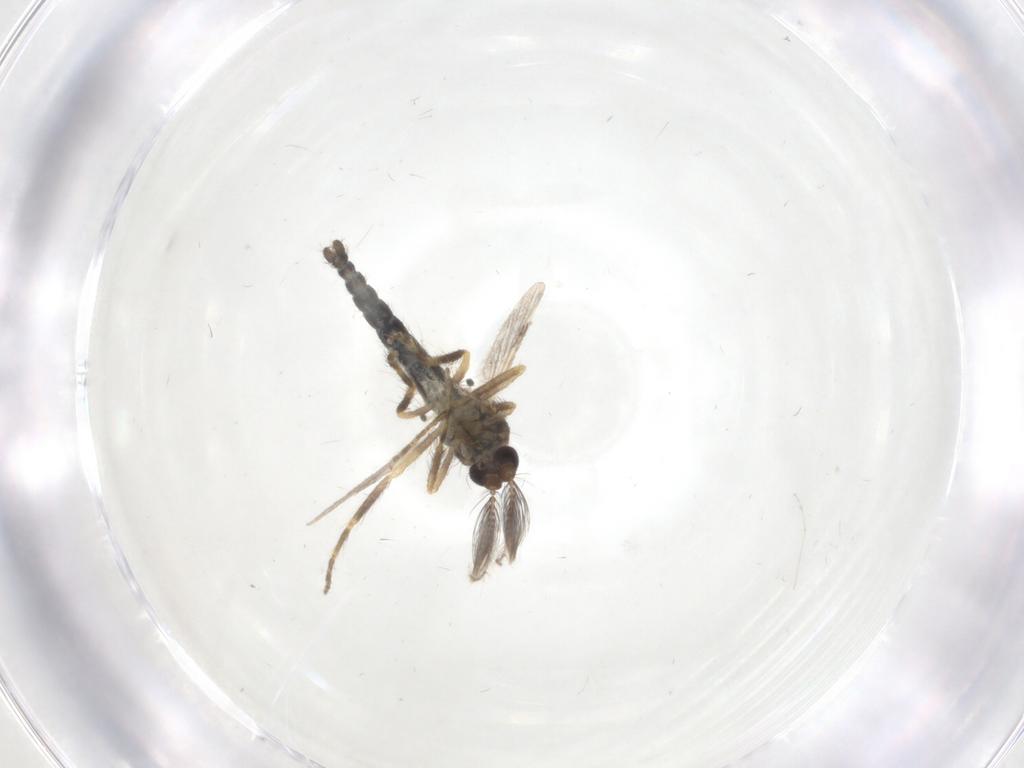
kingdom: Animalia
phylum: Arthropoda
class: Insecta
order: Diptera
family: Ceratopogonidae
